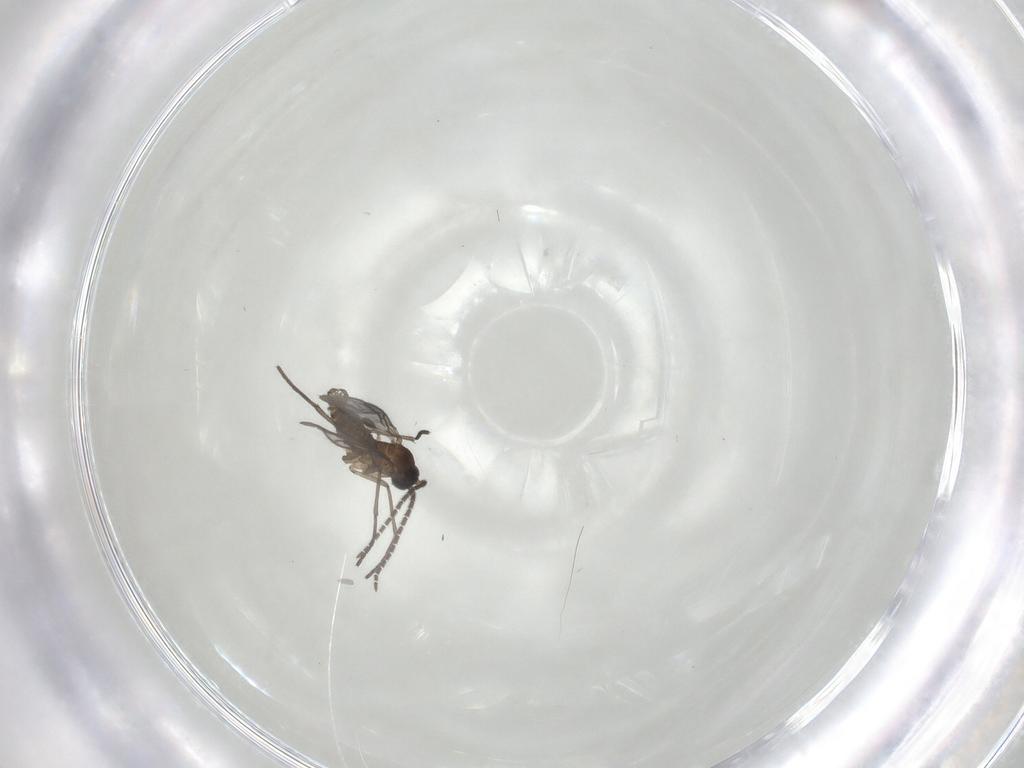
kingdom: Animalia
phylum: Arthropoda
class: Insecta
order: Diptera
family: Sciaridae
